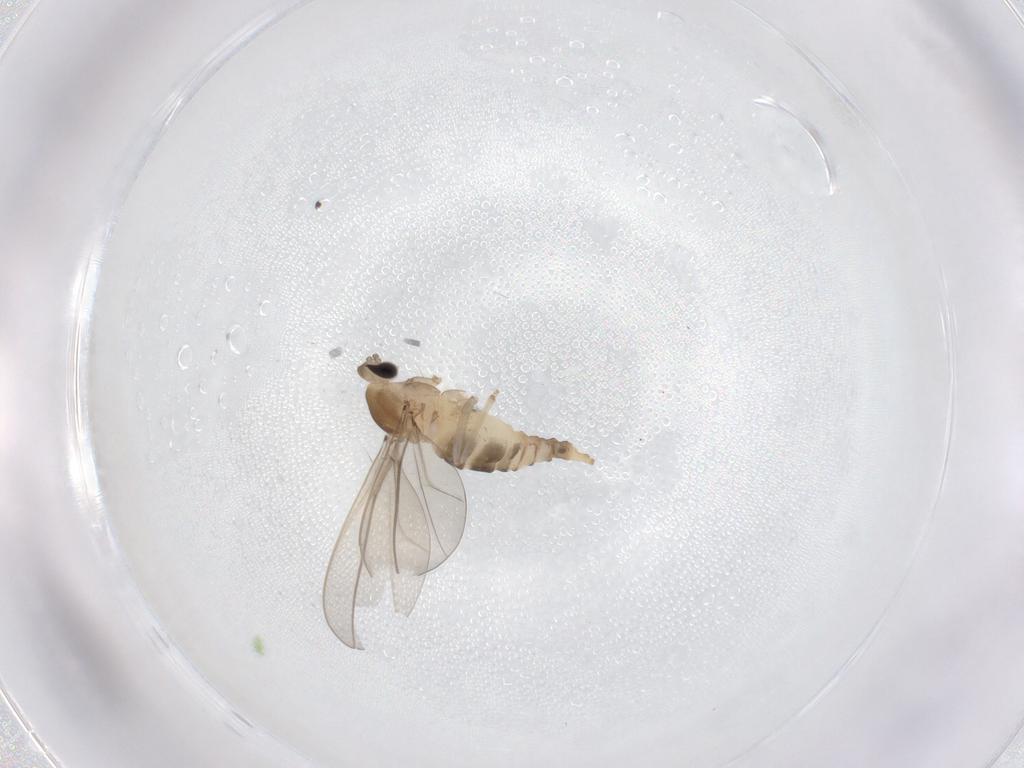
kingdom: Animalia
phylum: Arthropoda
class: Insecta
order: Diptera
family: Cecidomyiidae
